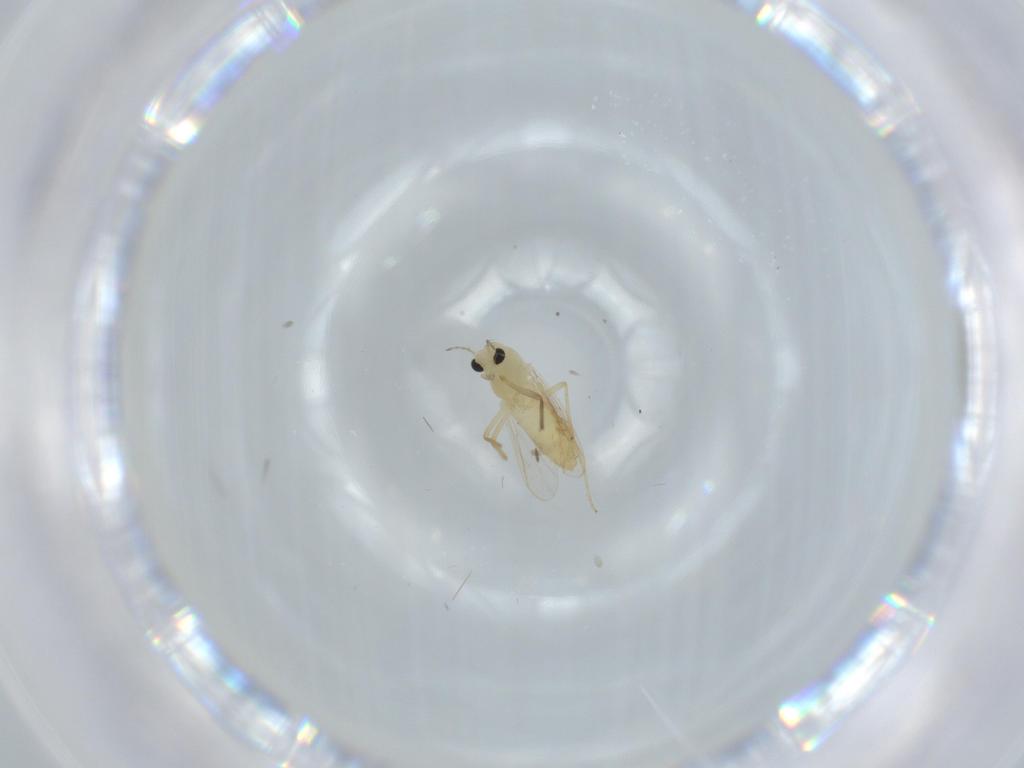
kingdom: Animalia
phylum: Arthropoda
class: Insecta
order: Diptera
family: Chironomidae
